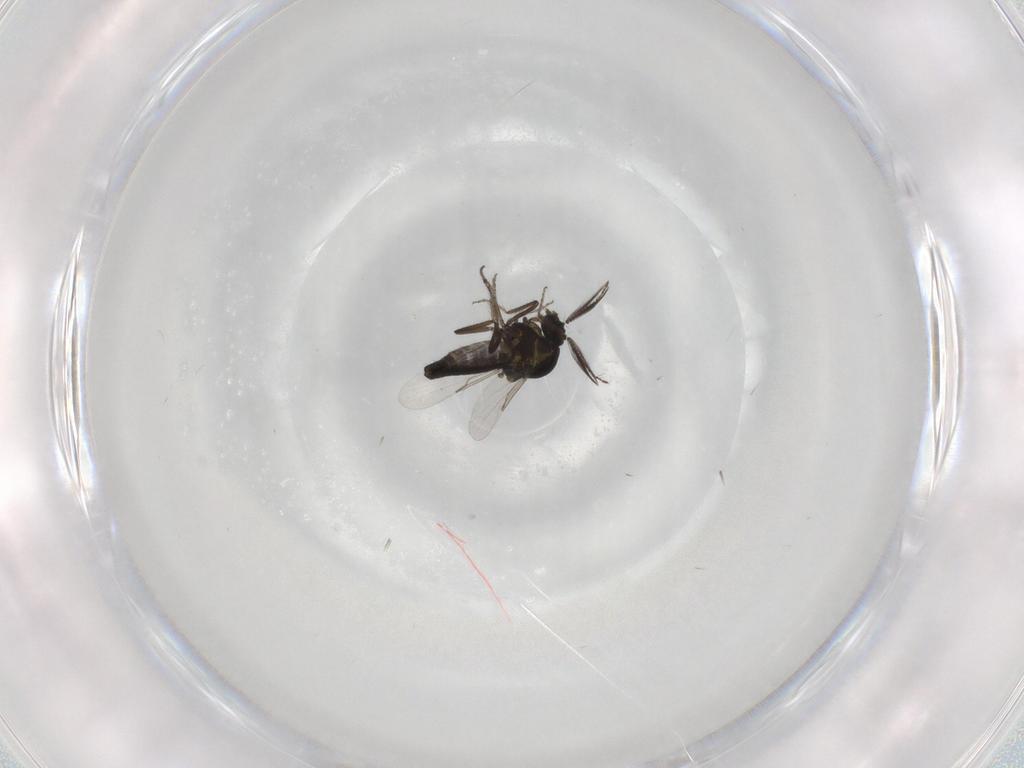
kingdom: Animalia
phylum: Arthropoda
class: Insecta
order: Diptera
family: Ceratopogonidae
